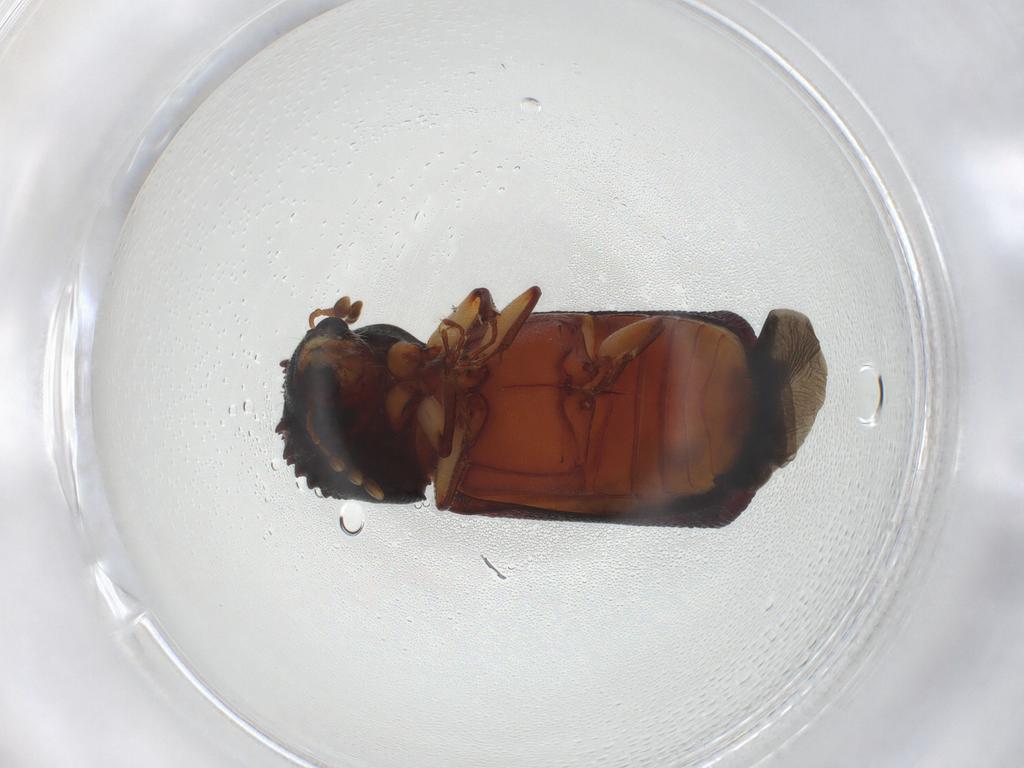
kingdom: Animalia
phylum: Arthropoda
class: Insecta
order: Coleoptera
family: Bostrichidae
